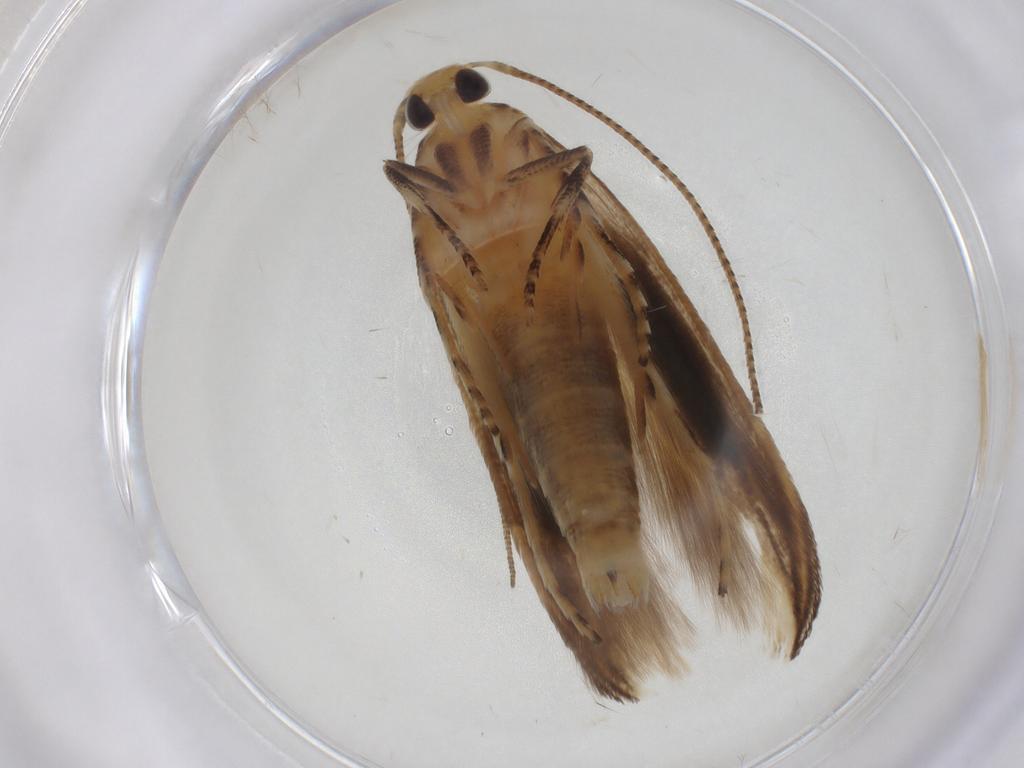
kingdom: Animalia
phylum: Arthropoda
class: Insecta
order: Lepidoptera
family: Momphidae
